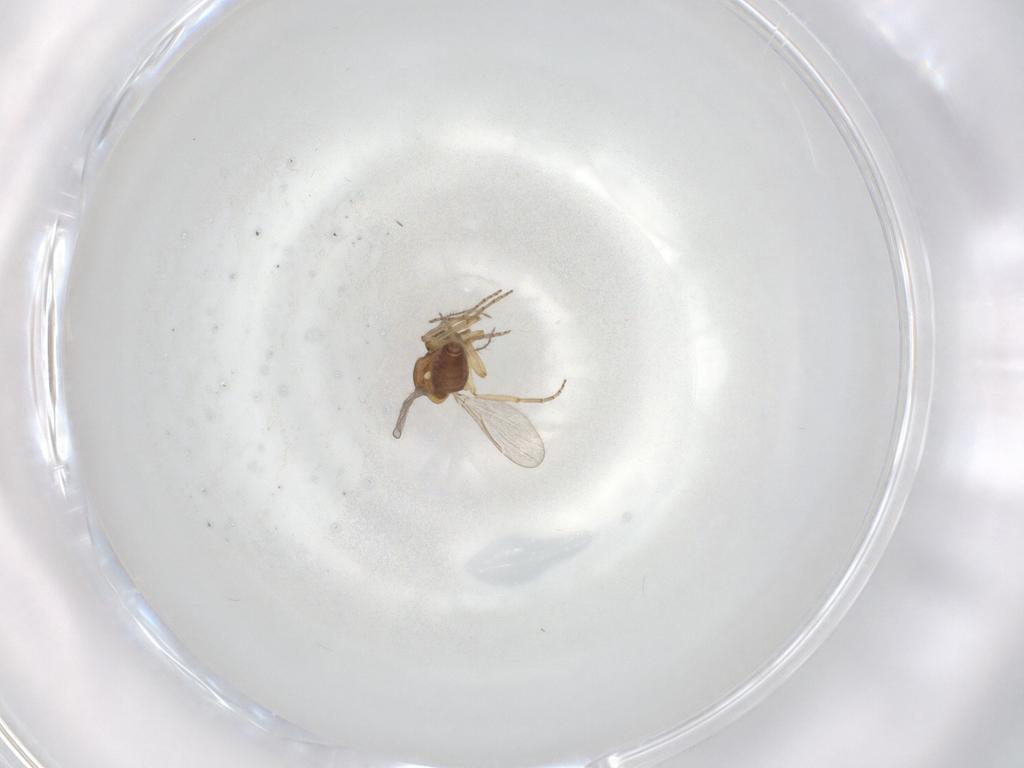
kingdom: Animalia
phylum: Arthropoda
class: Insecta
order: Diptera
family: Ceratopogonidae
